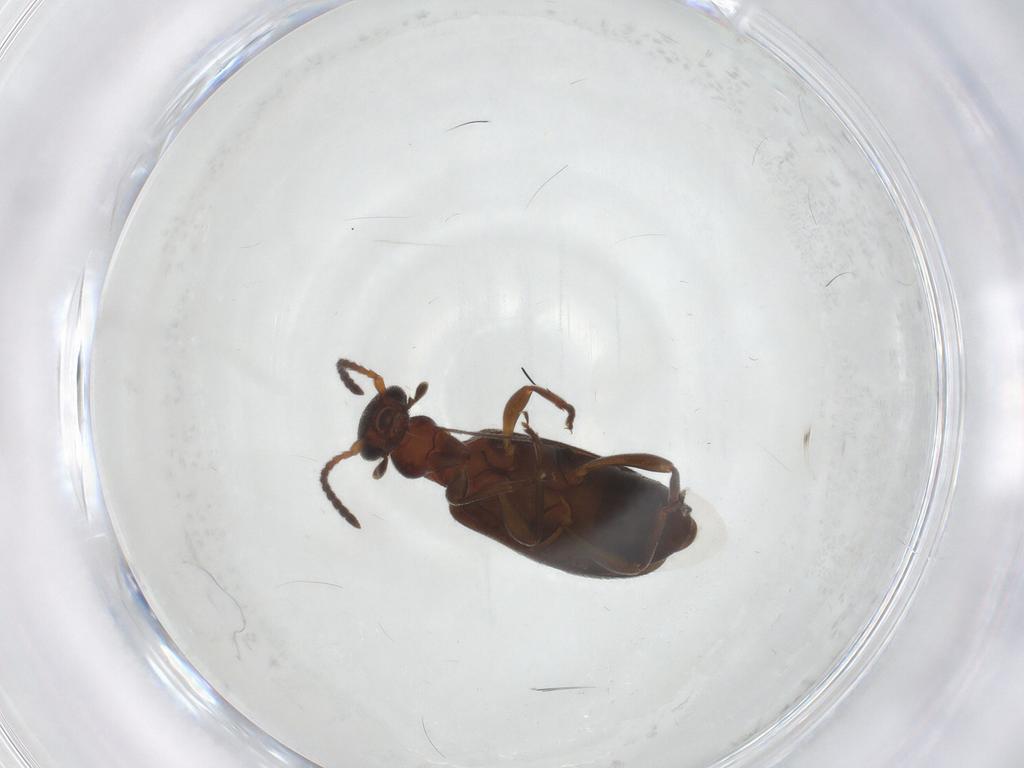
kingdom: Animalia
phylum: Arthropoda
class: Insecta
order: Coleoptera
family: Anthicidae
